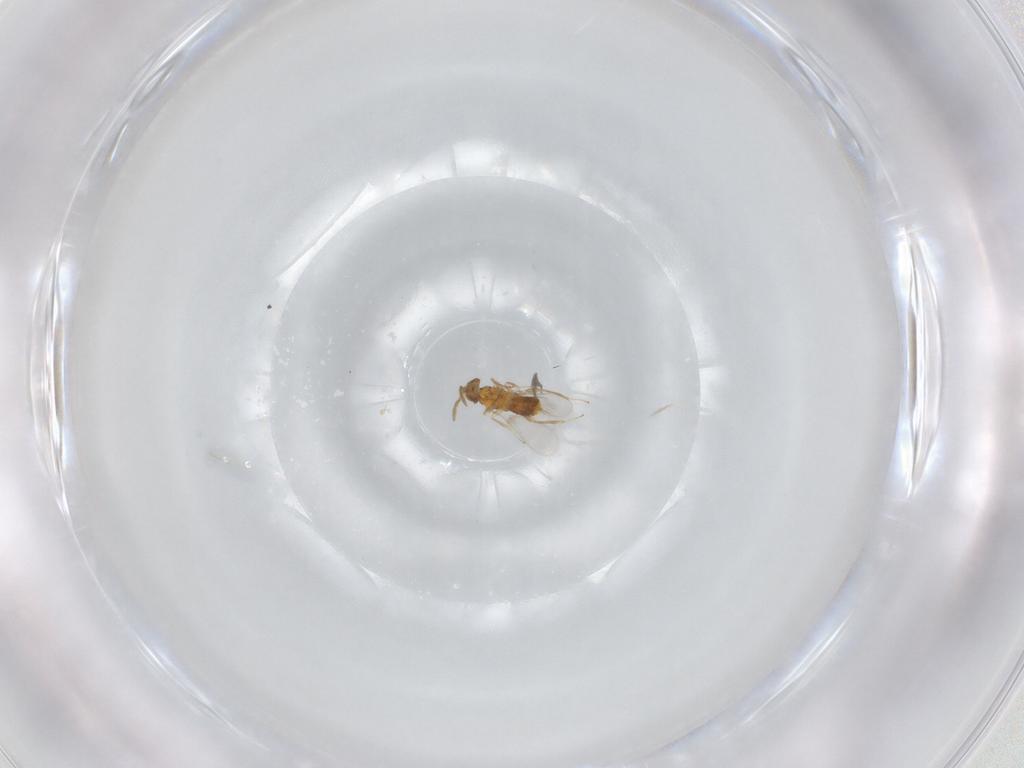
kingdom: Animalia
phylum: Arthropoda
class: Insecta
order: Hymenoptera
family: Aphelinidae
